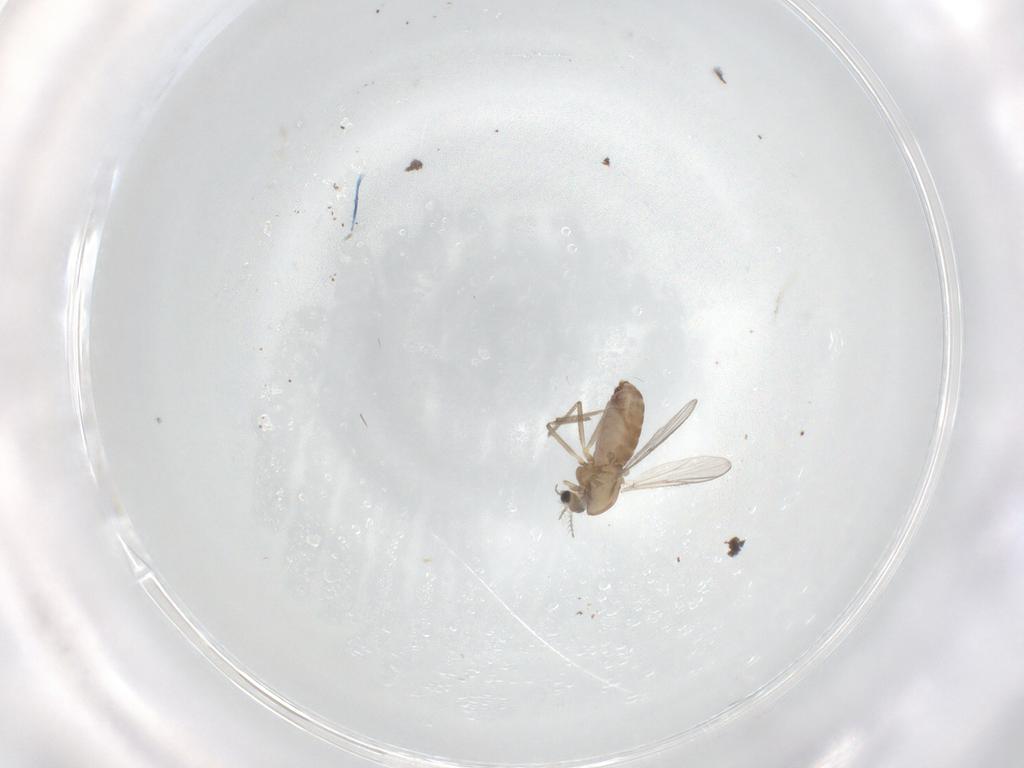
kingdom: Animalia
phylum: Arthropoda
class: Insecta
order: Diptera
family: Chironomidae
